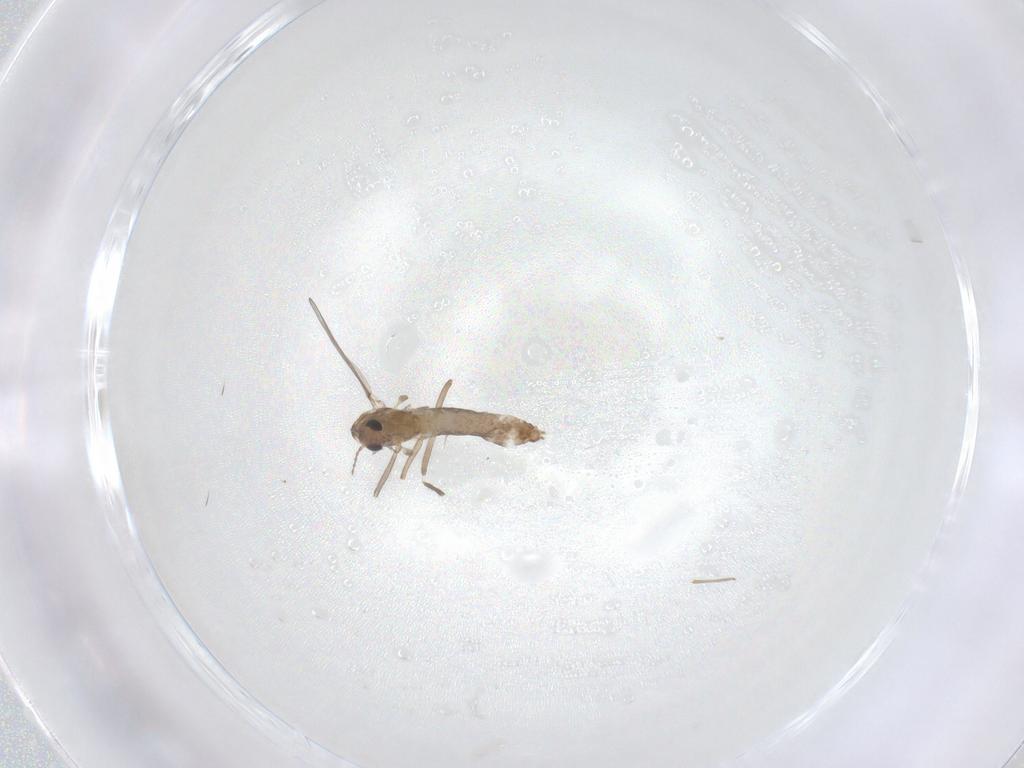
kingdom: Animalia
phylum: Arthropoda
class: Insecta
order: Diptera
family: Chironomidae
